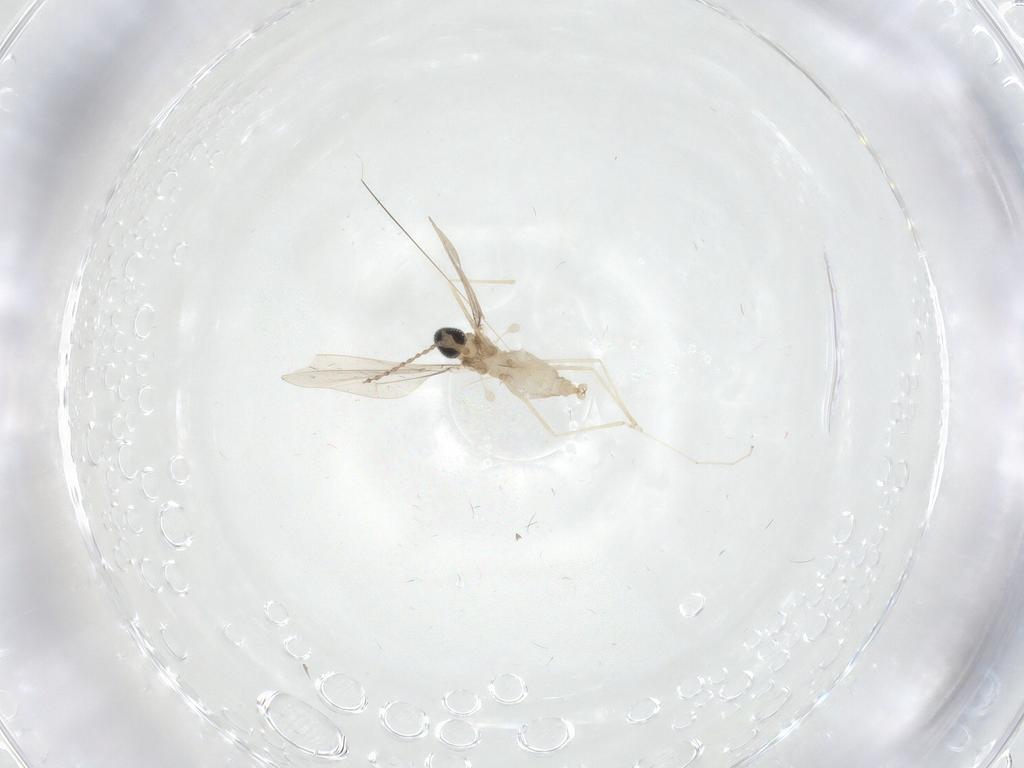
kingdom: Animalia
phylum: Arthropoda
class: Insecta
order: Diptera
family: Cecidomyiidae
